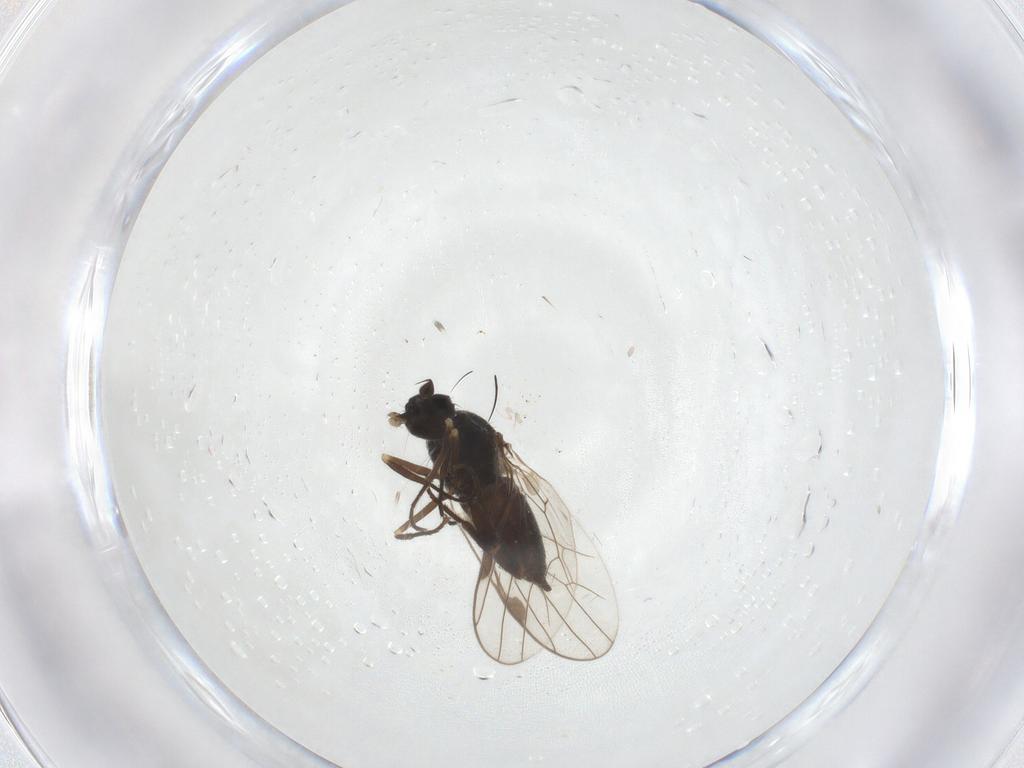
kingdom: Animalia
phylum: Arthropoda
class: Insecta
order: Diptera
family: Muscidae
